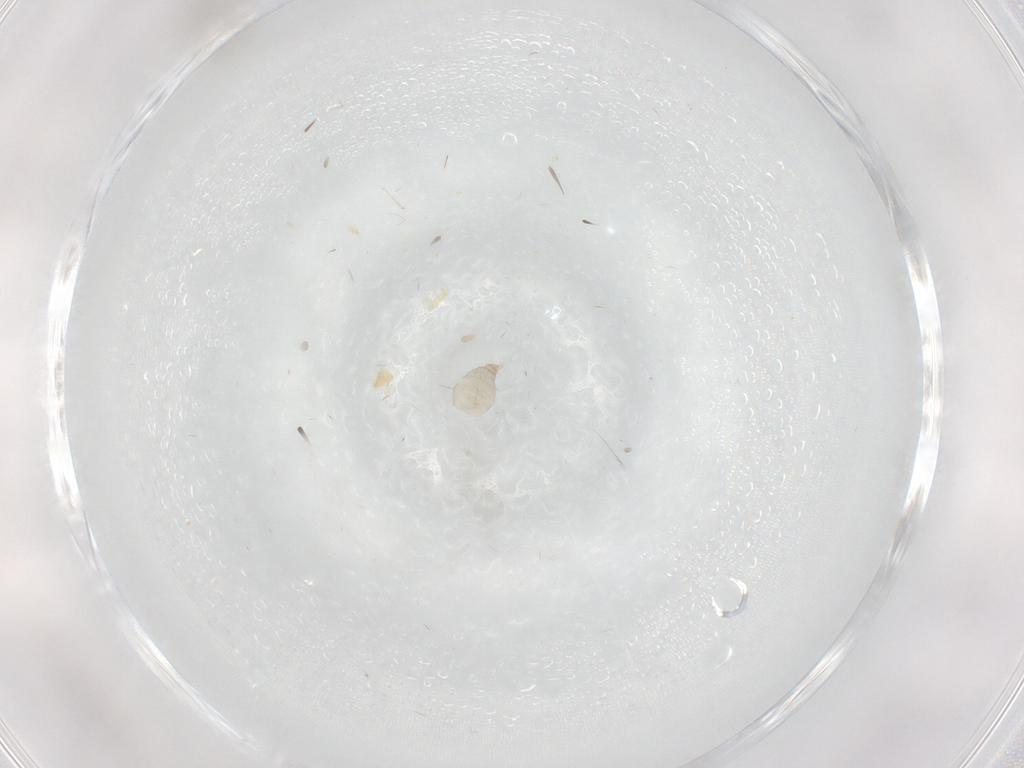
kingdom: Animalia
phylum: Arthropoda
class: Insecta
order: Diptera
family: Cecidomyiidae
